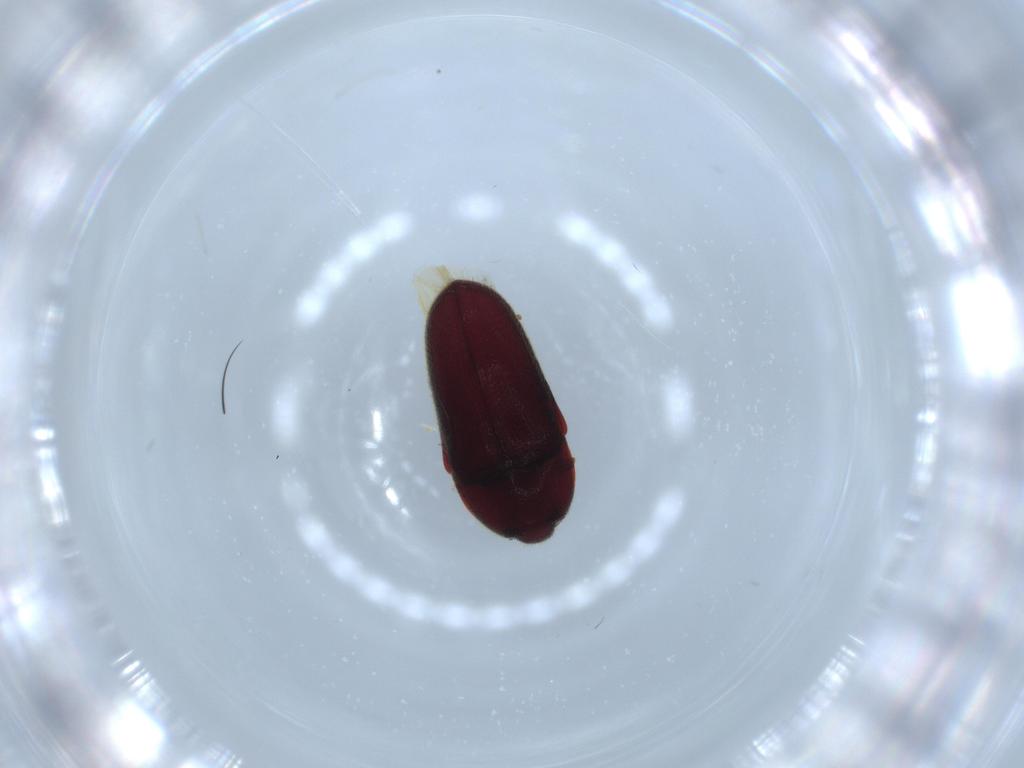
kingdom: Animalia
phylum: Arthropoda
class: Insecta
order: Coleoptera
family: Throscidae
